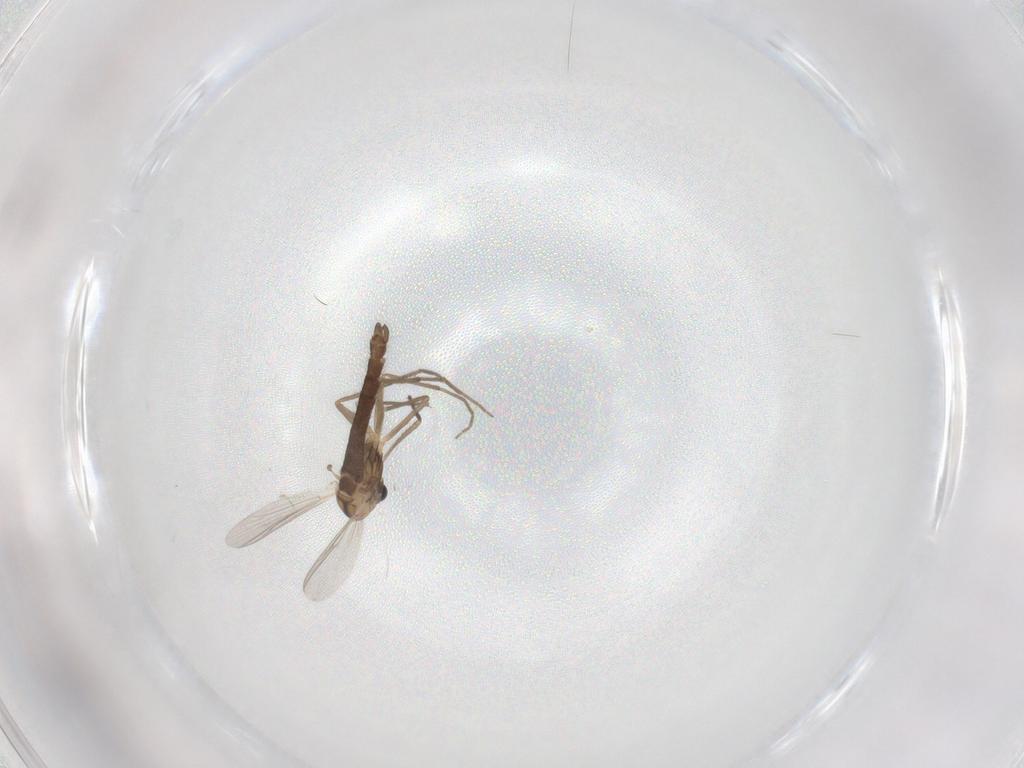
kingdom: Animalia
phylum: Arthropoda
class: Insecta
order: Diptera
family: Chironomidae
